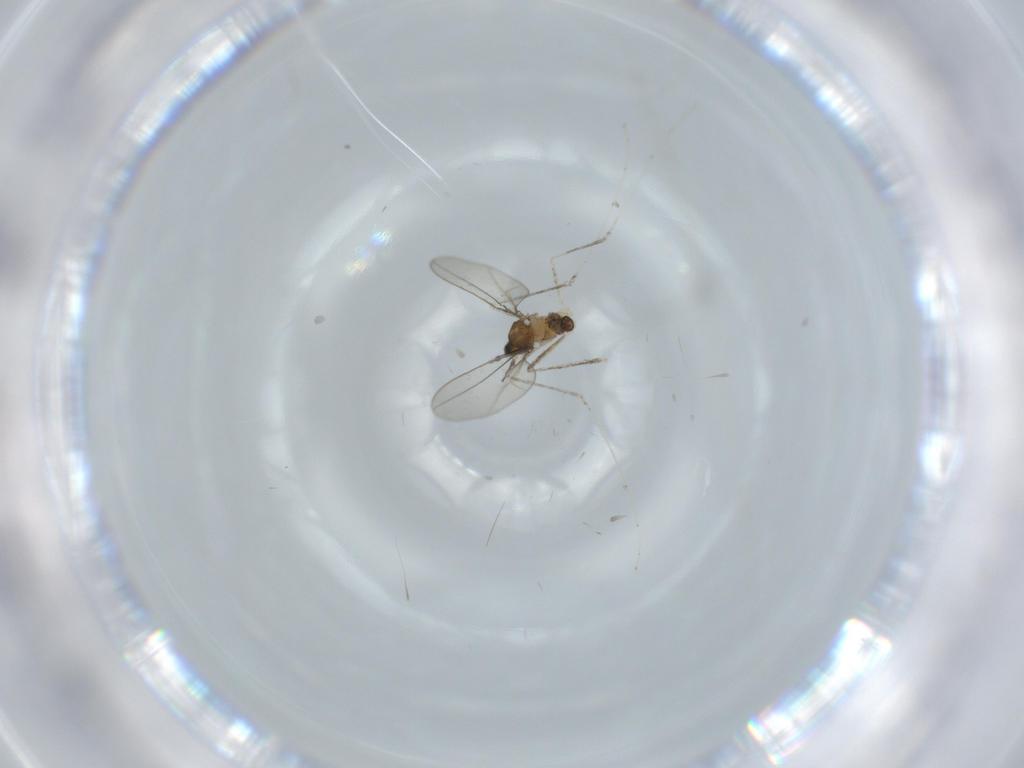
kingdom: Animalia
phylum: Arthropoda
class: Insecta
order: Diptera
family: Cecidomyiidae
